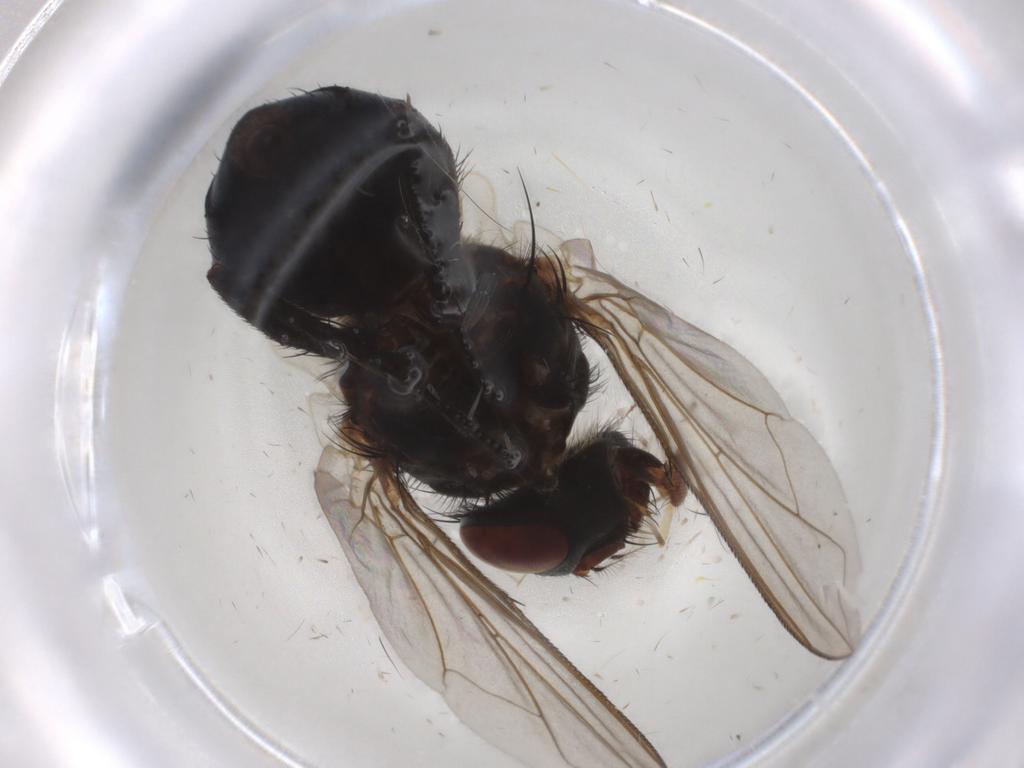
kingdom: Animalia
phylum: Arthropoda
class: Insecta
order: Diptera
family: Calliphoridae
